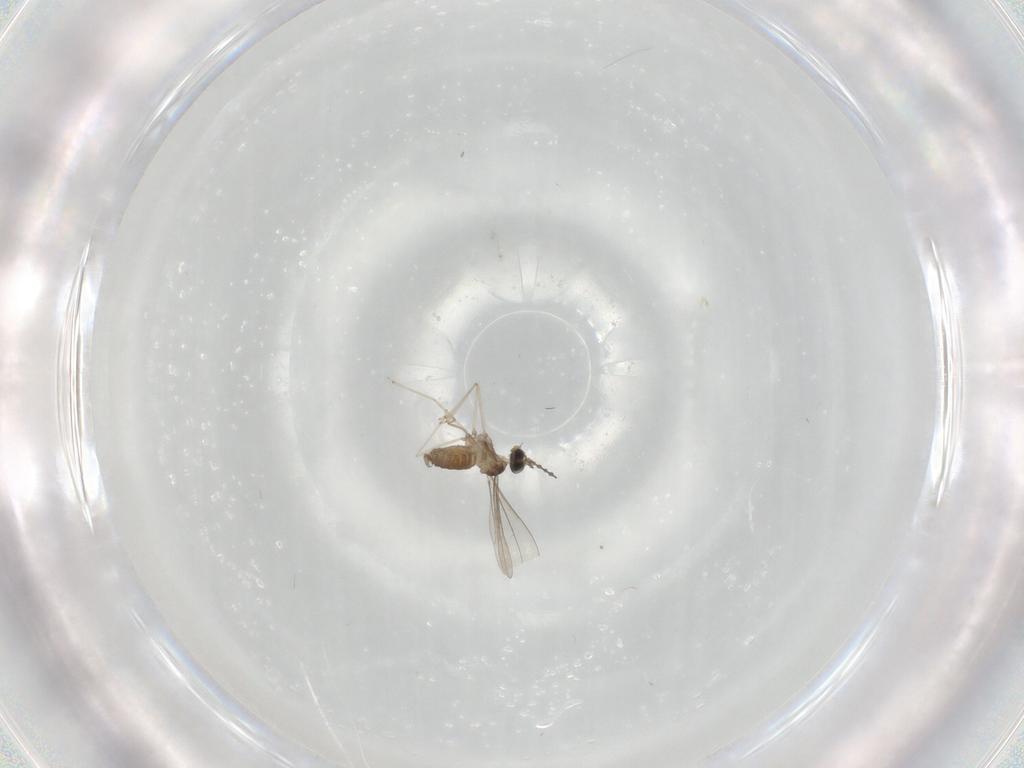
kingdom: Animalia
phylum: Arthropoda
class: Insecta
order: Diptera
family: Cecidomyiidae
